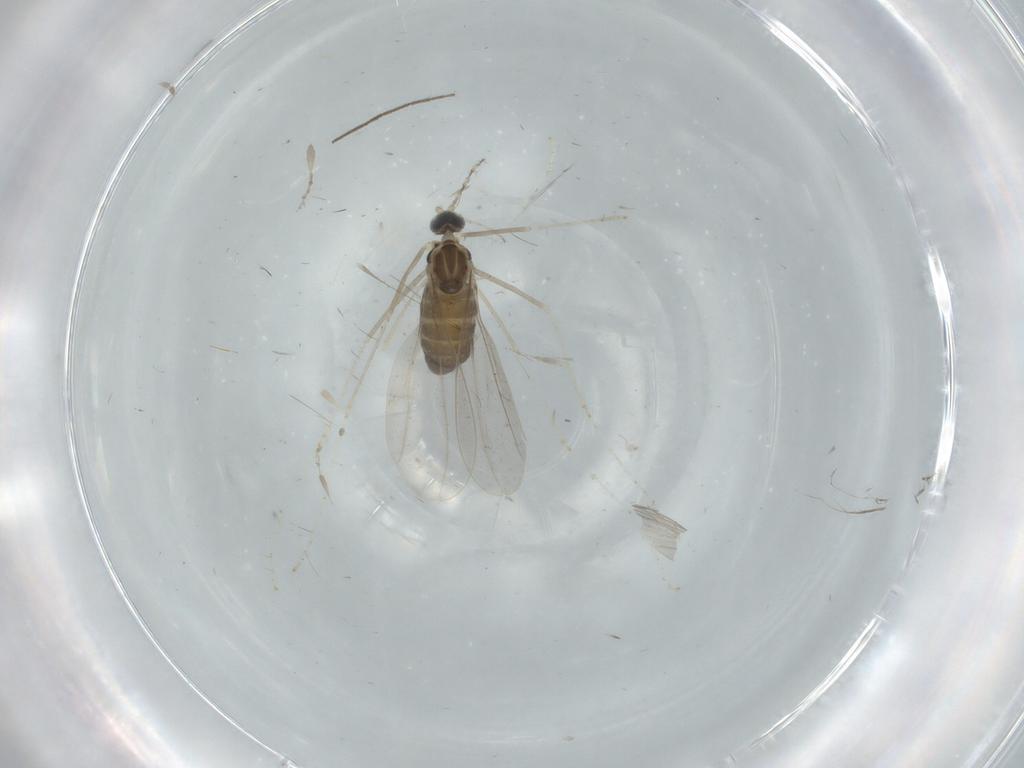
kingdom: Animalia
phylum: Arthropoda
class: Insecta
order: Diptera
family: Cecidomyiidae
